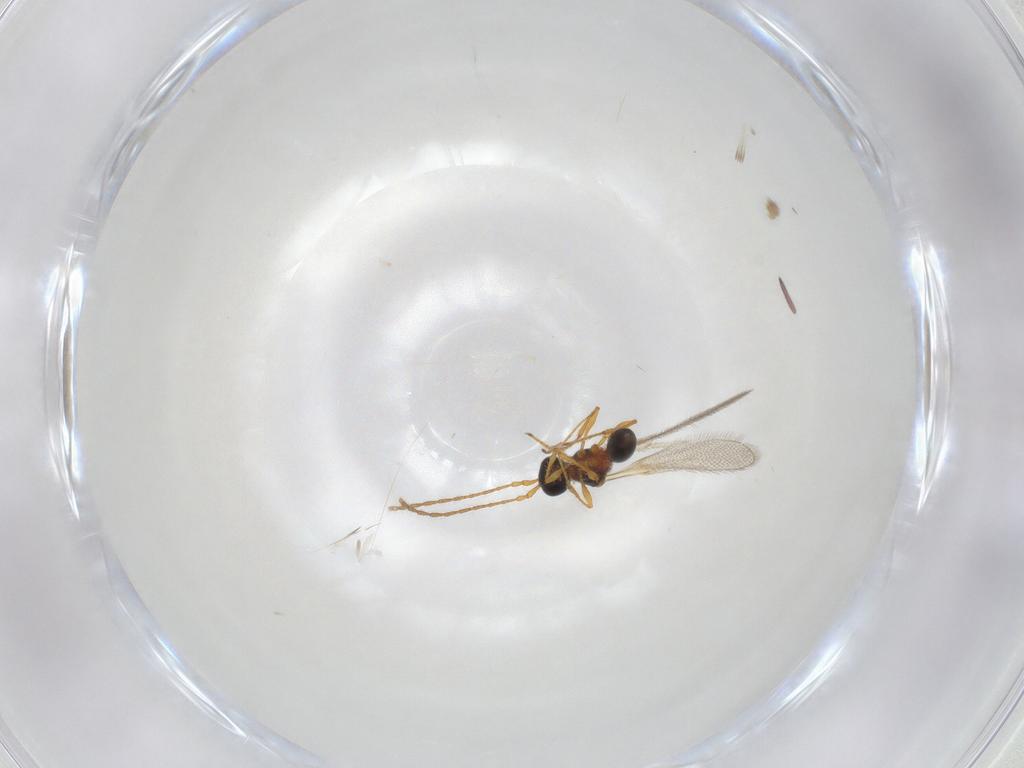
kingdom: Animalia
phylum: Arthropoda
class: Insecta
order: Hymenoptera
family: Diapriidae
